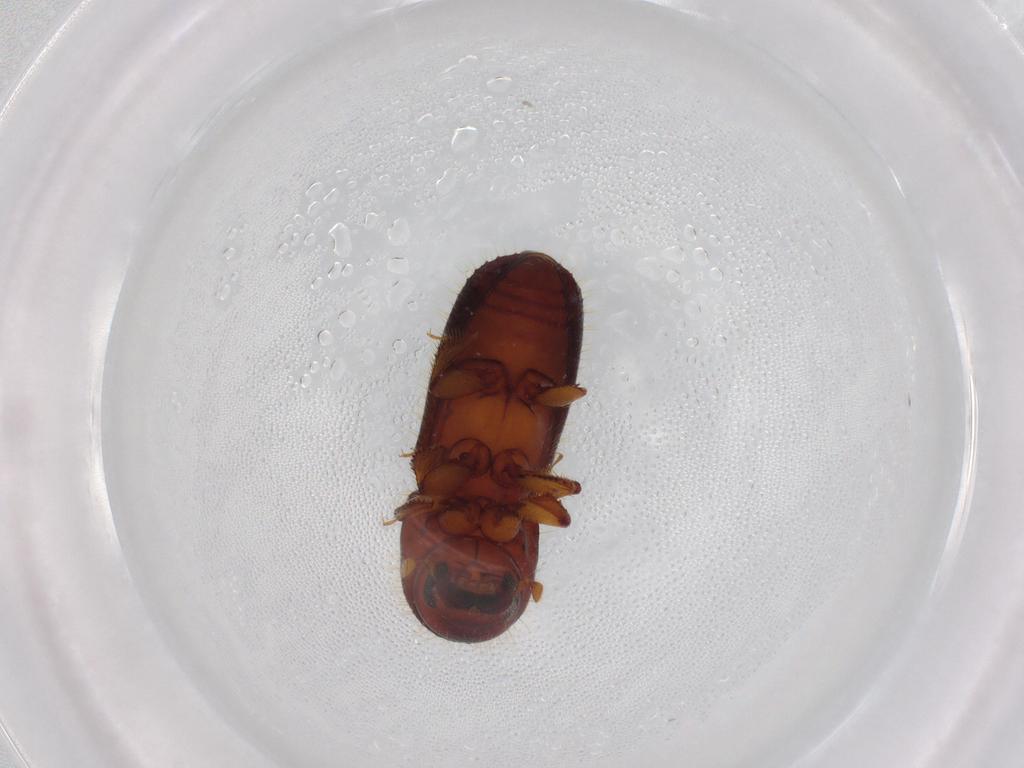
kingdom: Animalia
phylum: Arthropoda
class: Insecta
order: Coleoptera
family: Curculionidae
